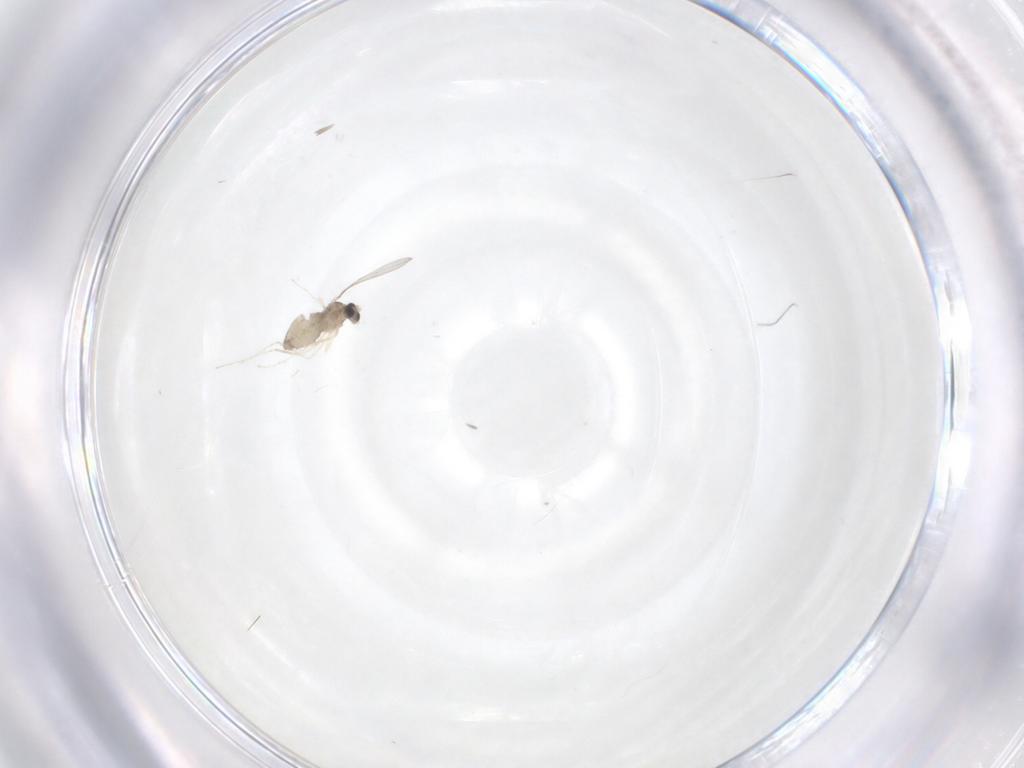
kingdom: Animalia
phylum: Arthropoda
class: Insecta
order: Diptera
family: Cecidomyiidae
